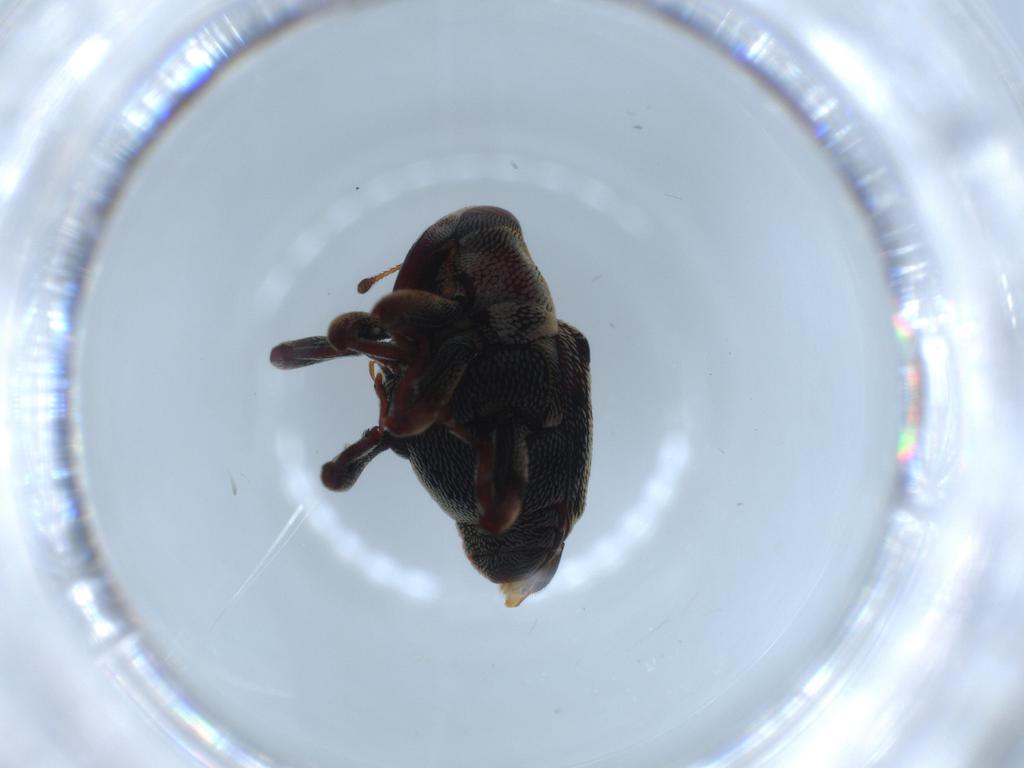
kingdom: Animalia
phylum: Arthropoda
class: Insecta
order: Coleoptera
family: Curculionidae
